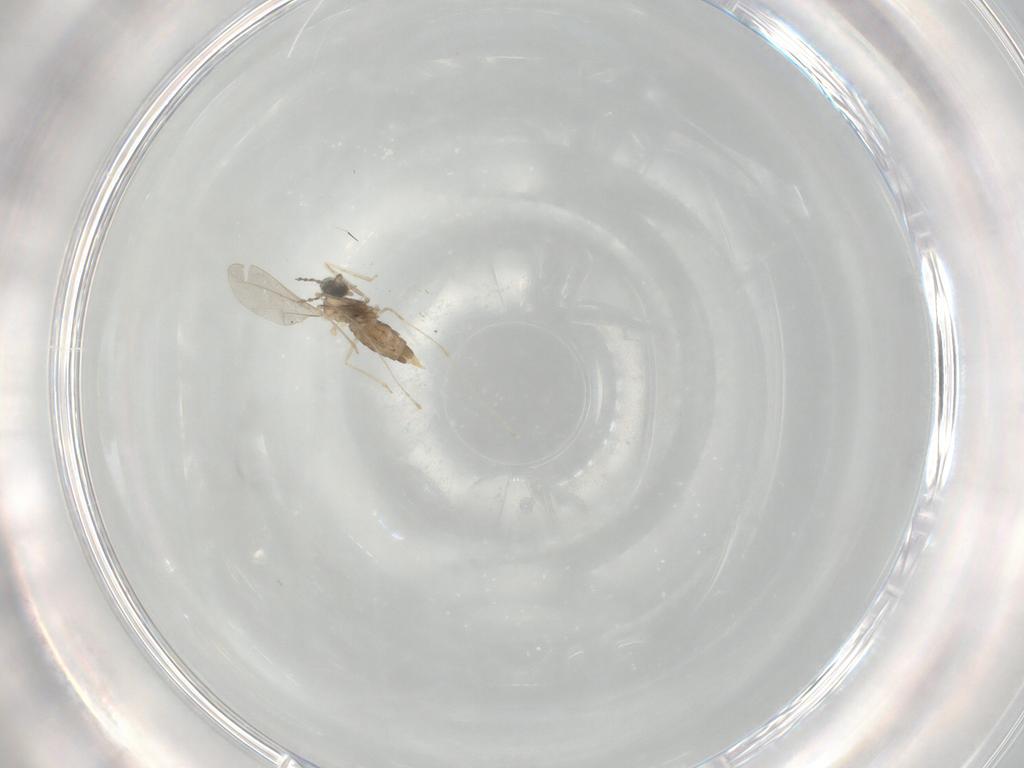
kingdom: Animalia
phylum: Arthropoda
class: Insecta
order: Diptera
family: Cecidomyiidae
